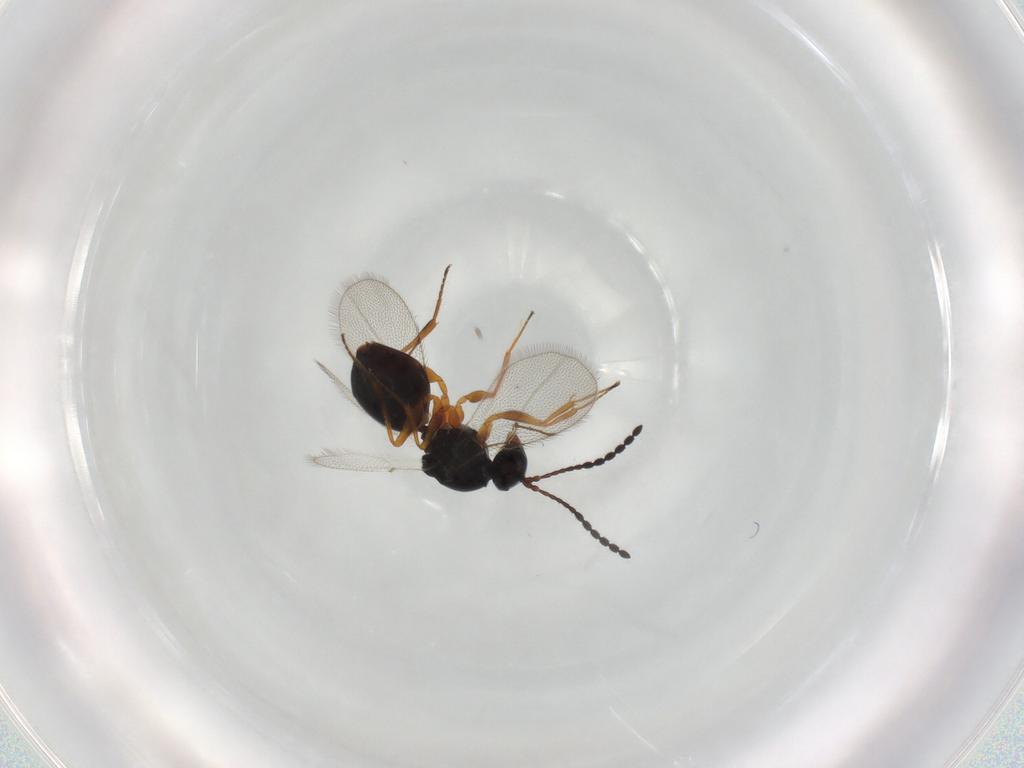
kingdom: Animalia
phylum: Arthropoda
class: Insecta
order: Hymenoptera
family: Figitidae
